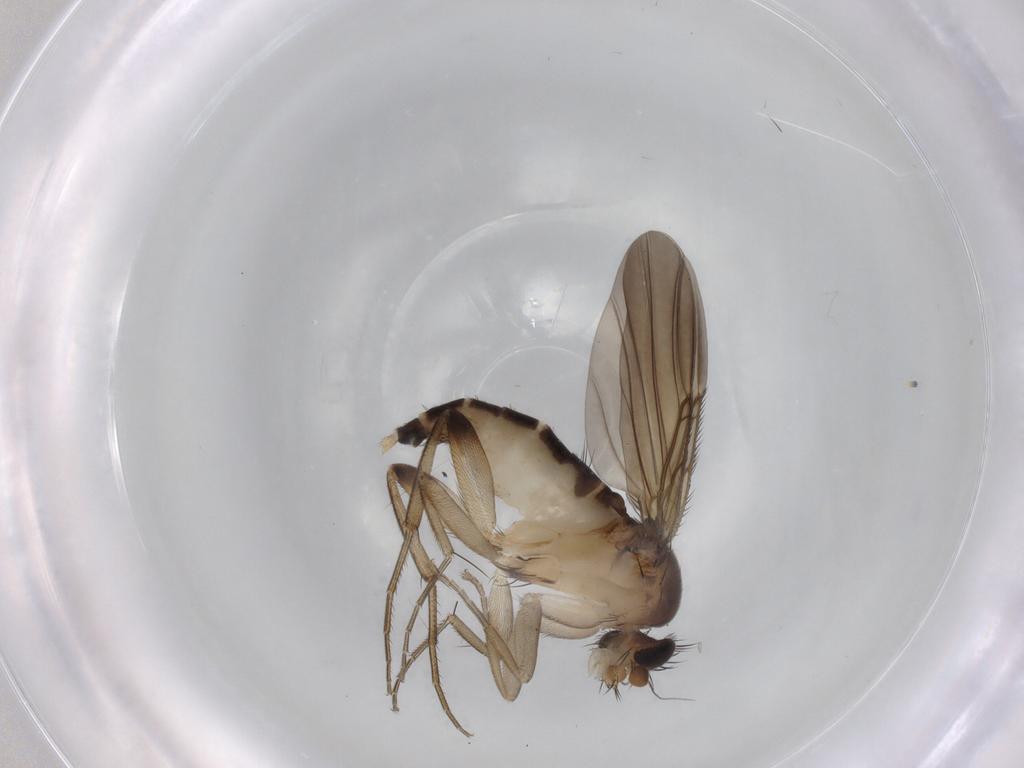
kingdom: Animalia
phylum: Arthropoda
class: Insecta
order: Diptera
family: Phoridae
